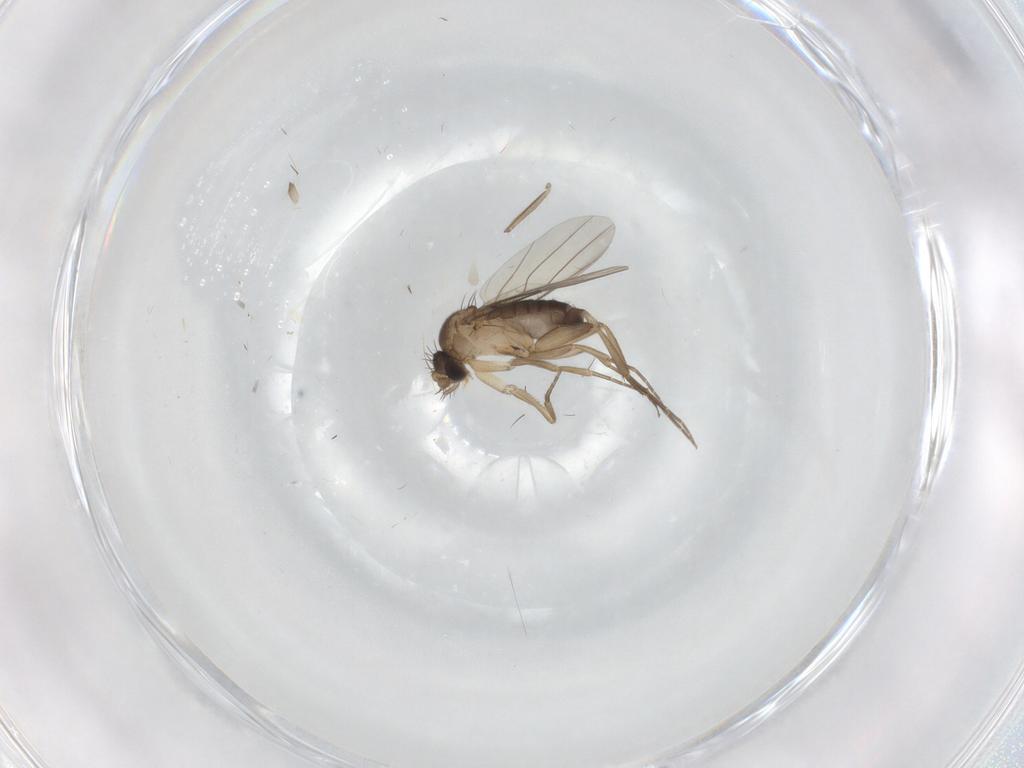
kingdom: Animalia
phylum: Arthropoda
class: Insecta
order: Diptera
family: Phoridae
